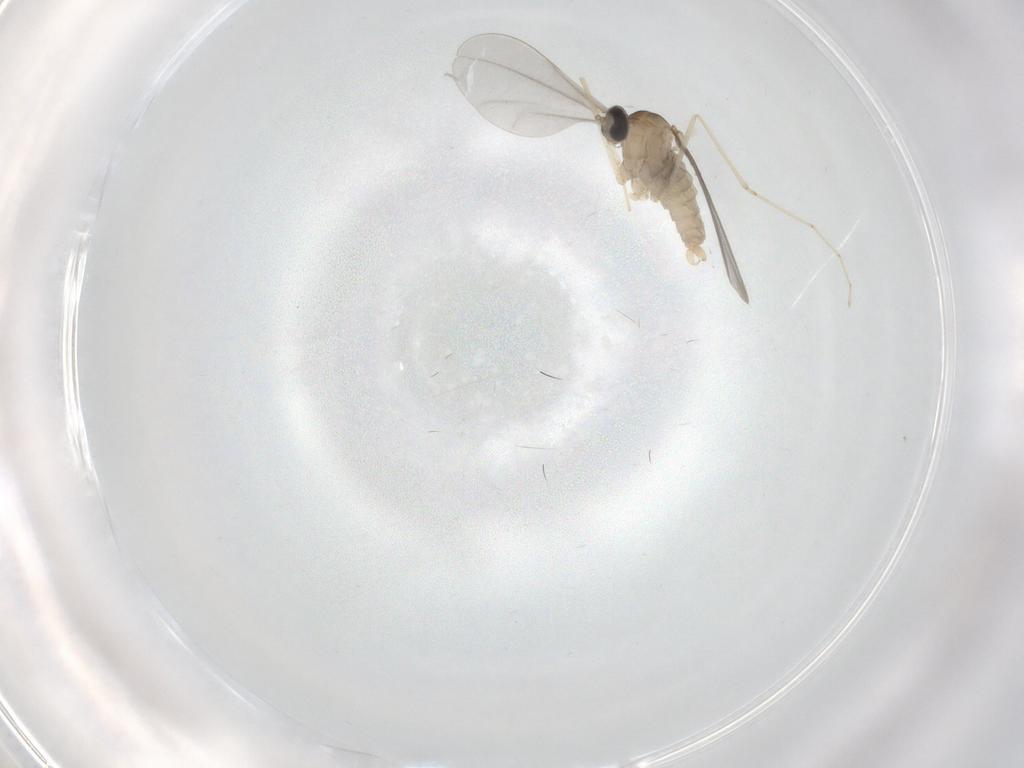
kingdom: Animalia
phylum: Arthropoda
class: Insecta
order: Diptera
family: Cecidomyiidae
